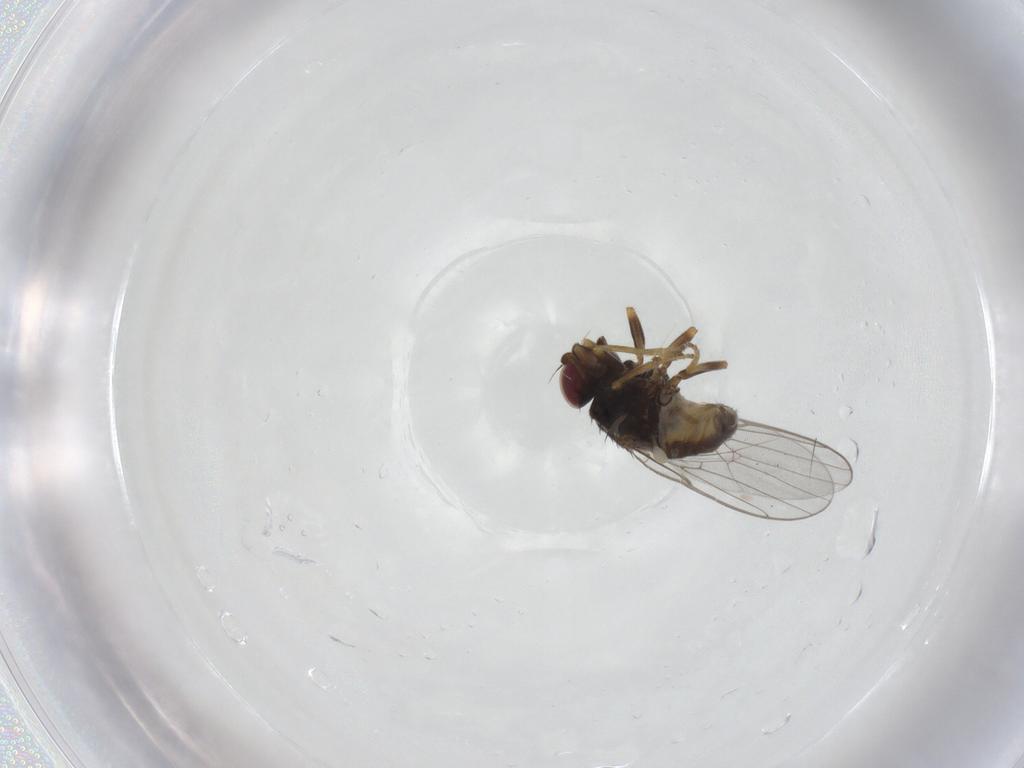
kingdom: Animalia
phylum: Arthropoda
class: Insecta
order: Diptera
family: Chloropidae
